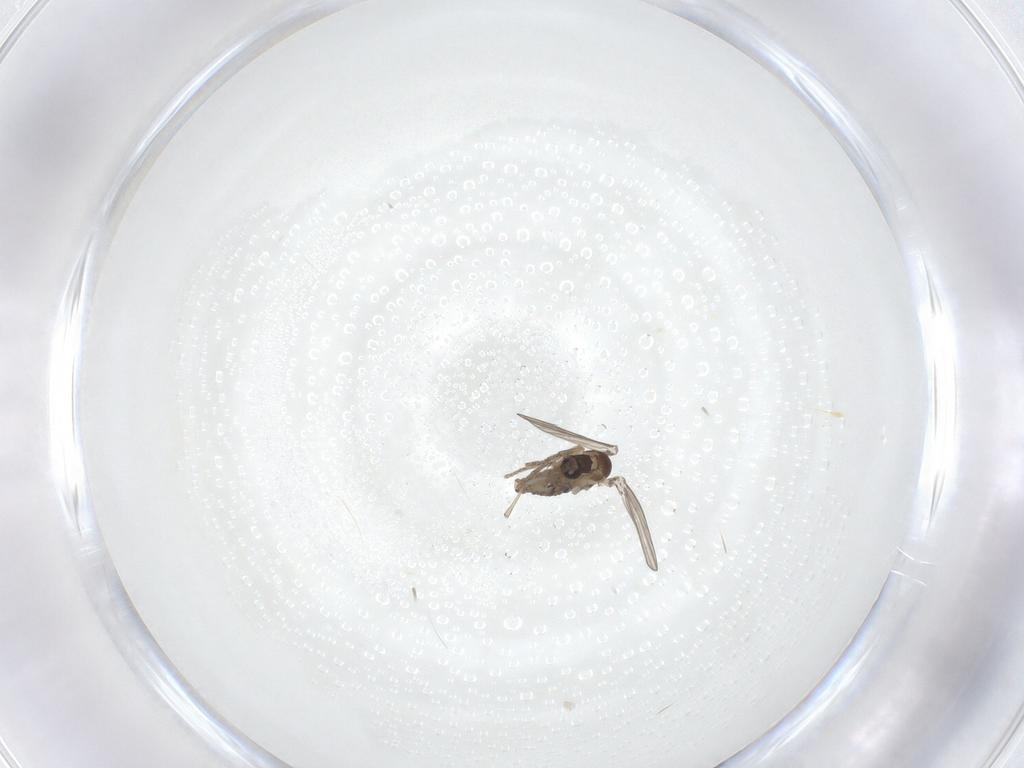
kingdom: Animalia
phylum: Arthropoda
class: Insecta
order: Diptera
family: Psychodidae
